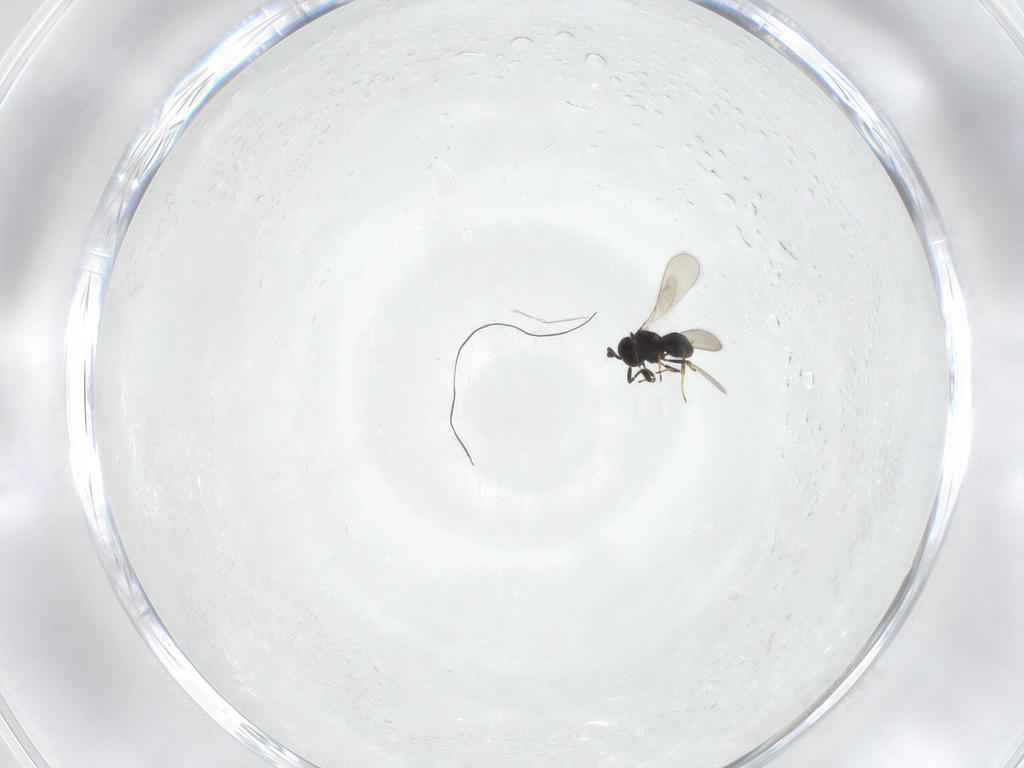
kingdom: Animalia
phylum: Arthropoda
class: Insecta
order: Hymenoptera
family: Scelionidae
